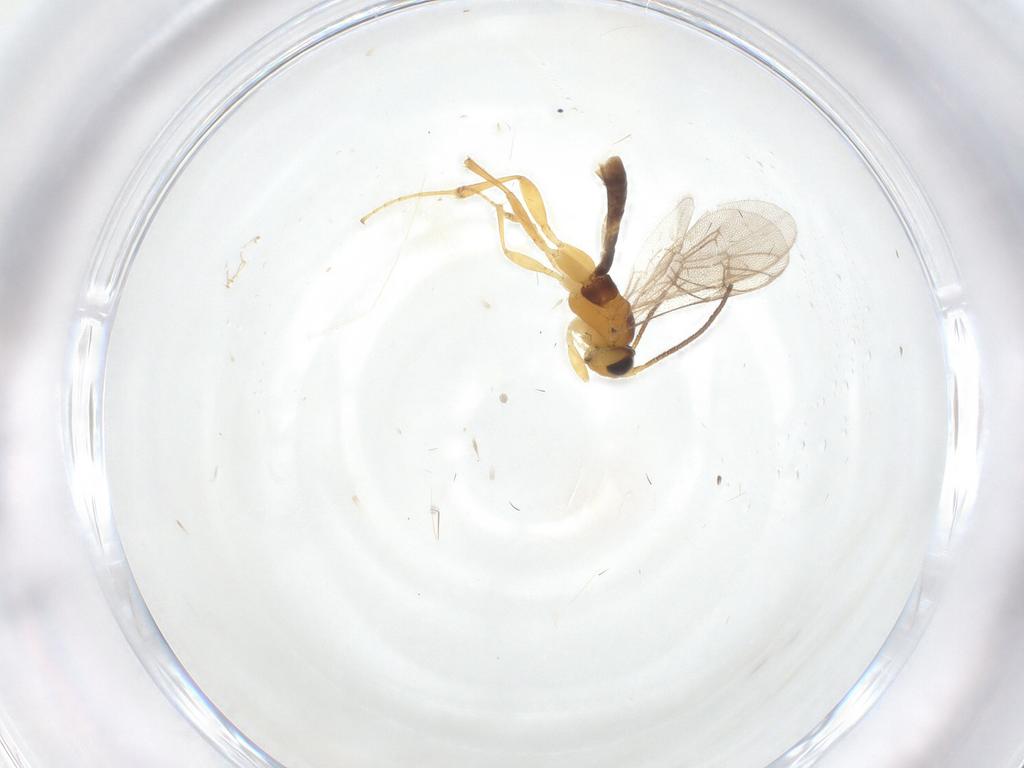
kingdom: Animalia
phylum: Arthropoda
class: Insecta
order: Hymenoptera
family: Ichneumonidae
